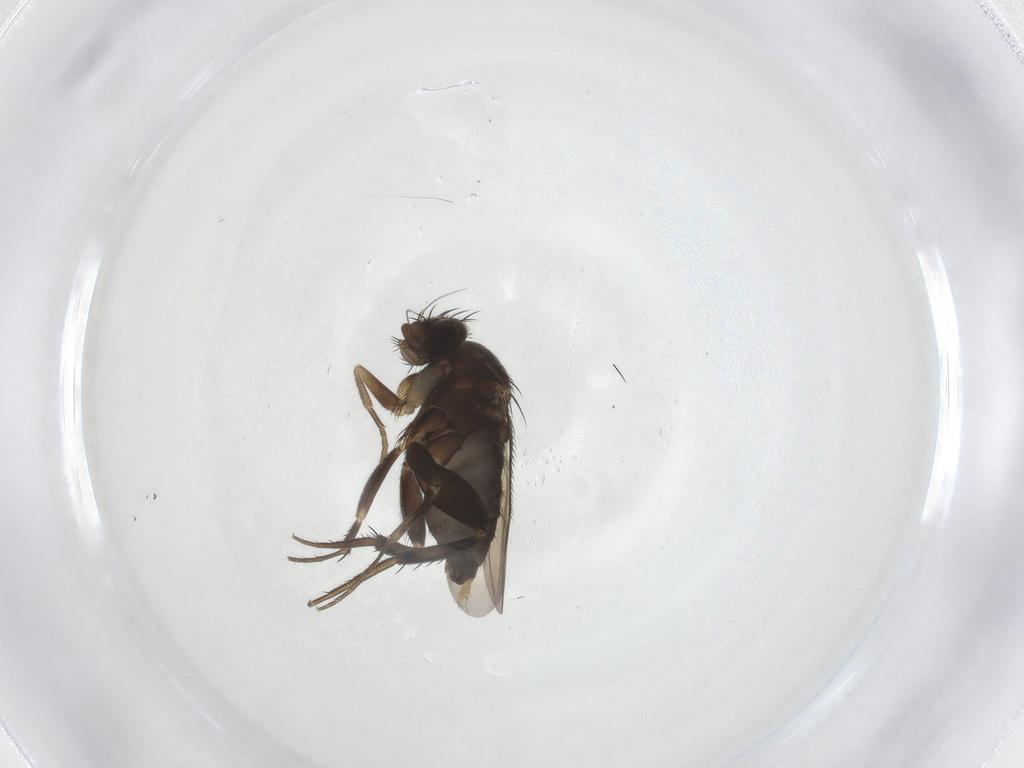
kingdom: Animalia
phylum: Arthropoda
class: Insecta
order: Diptera
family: Phoridae
